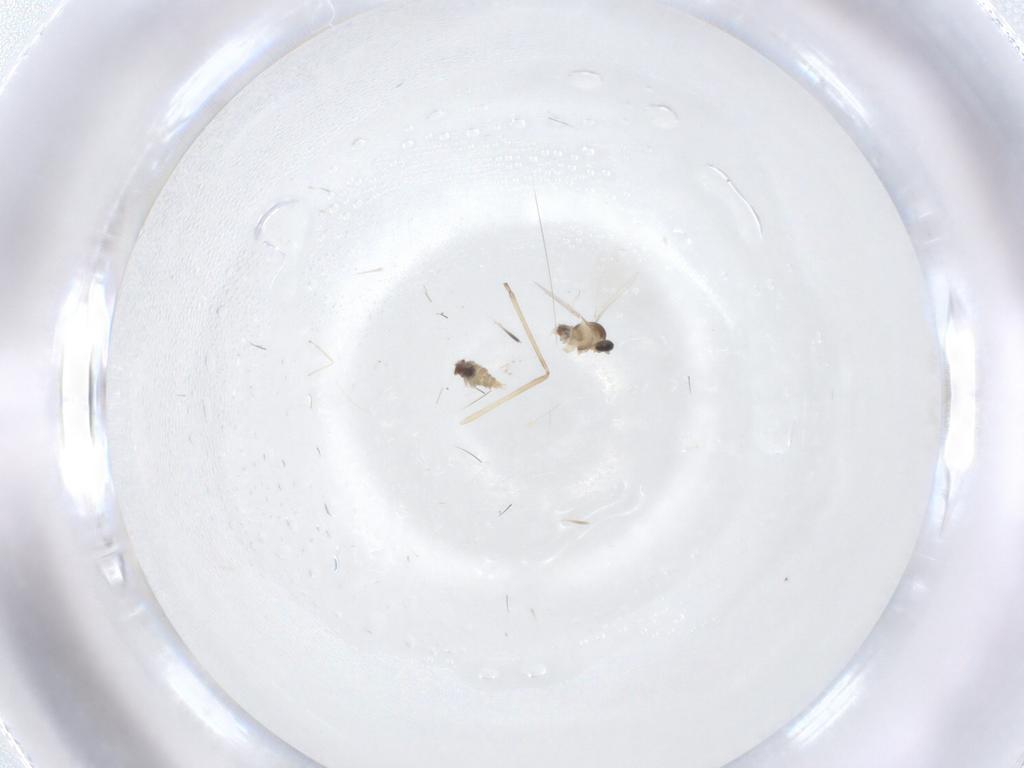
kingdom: Animalia
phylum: Arthropoda
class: Insecta
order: Diptera
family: Cecidomyiidae
